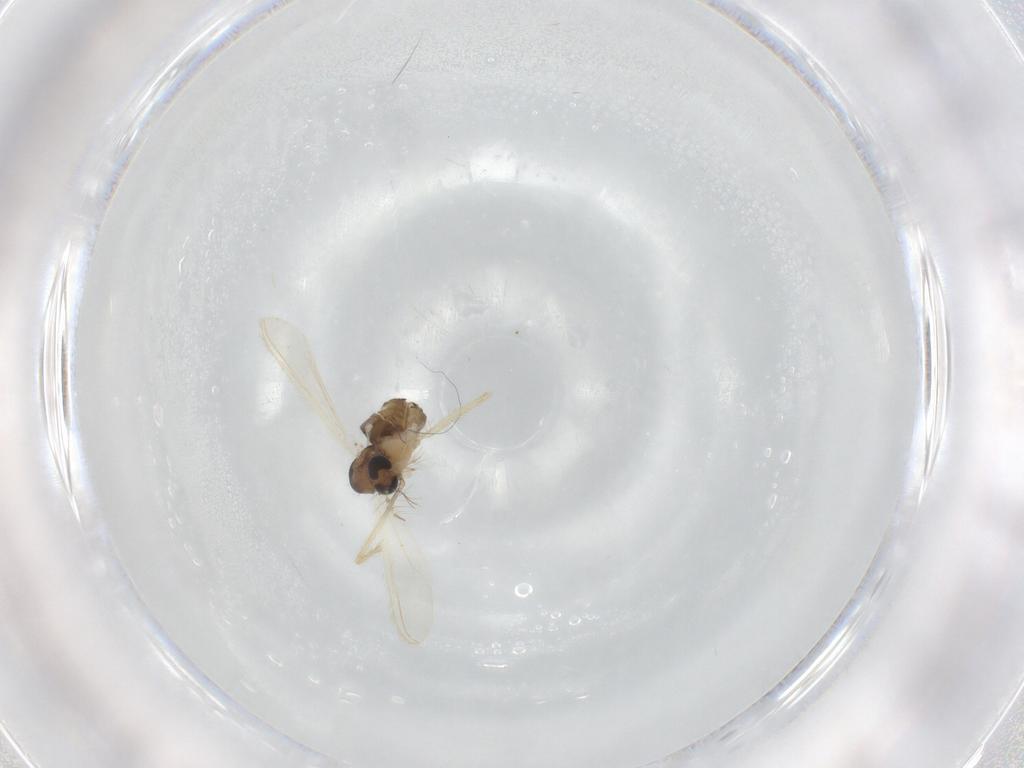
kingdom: Animalia
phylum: Arthropoda
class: Insecta
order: Diptera
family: Chironomidae
